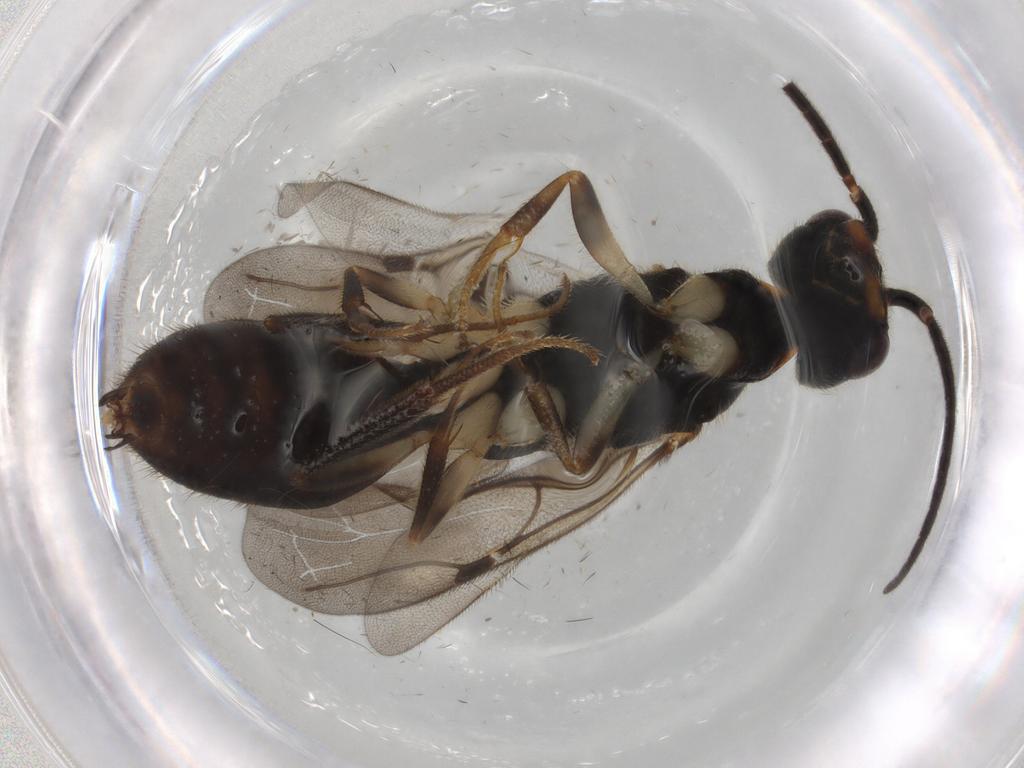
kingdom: Animalia
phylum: Arthropoda
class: Insecta
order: Hymenoptera
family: Bethylidae
